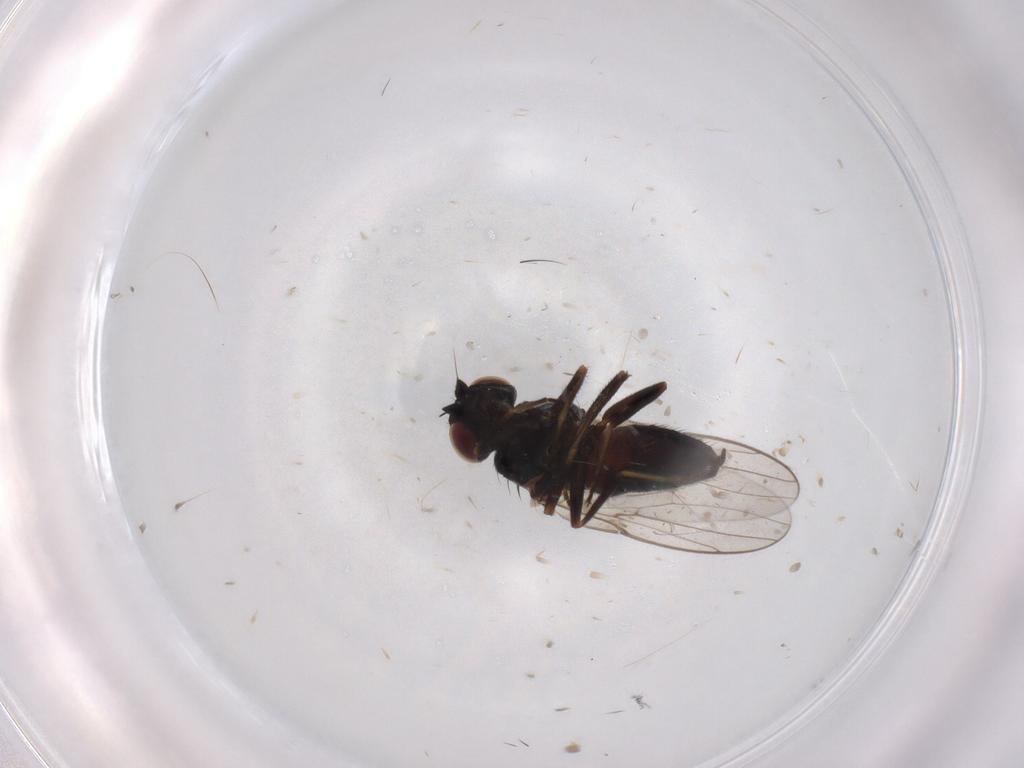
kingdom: Animalia
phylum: Arthropoda
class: Insecta
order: Diptera
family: Chloropidae
